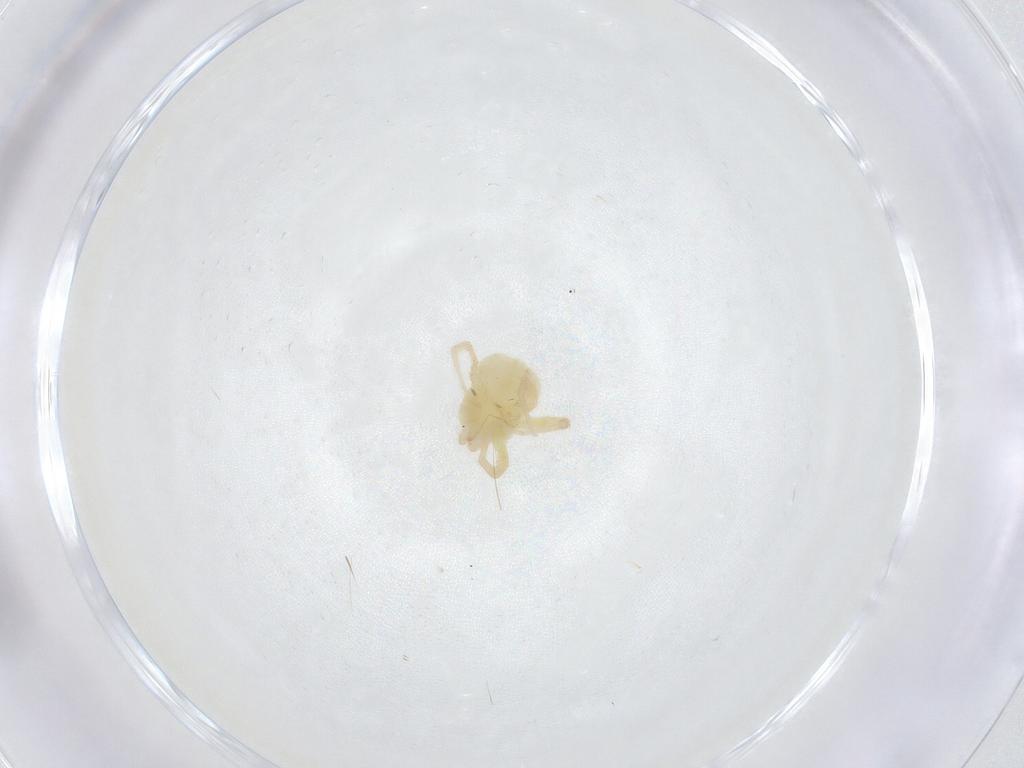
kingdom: Animalia
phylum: Arthropoda
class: Arachnida
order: Trombidiformes
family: Anystidae
